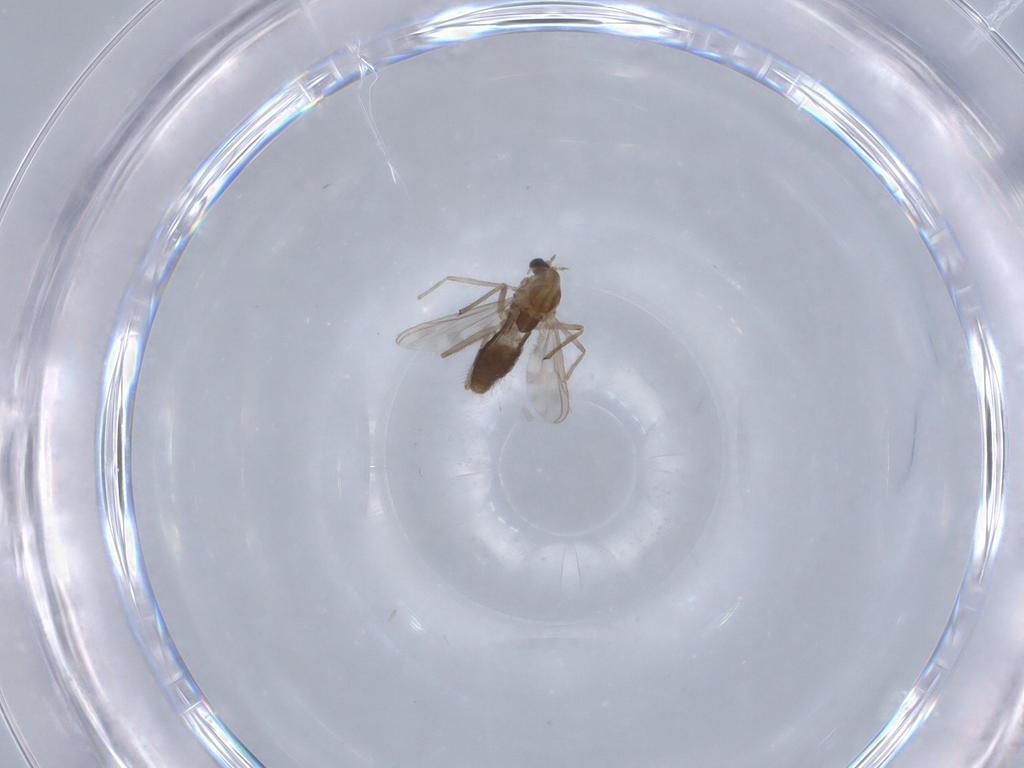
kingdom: Animalia
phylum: Arthropoda
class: Insecta
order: Diptera
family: Chironomidae
